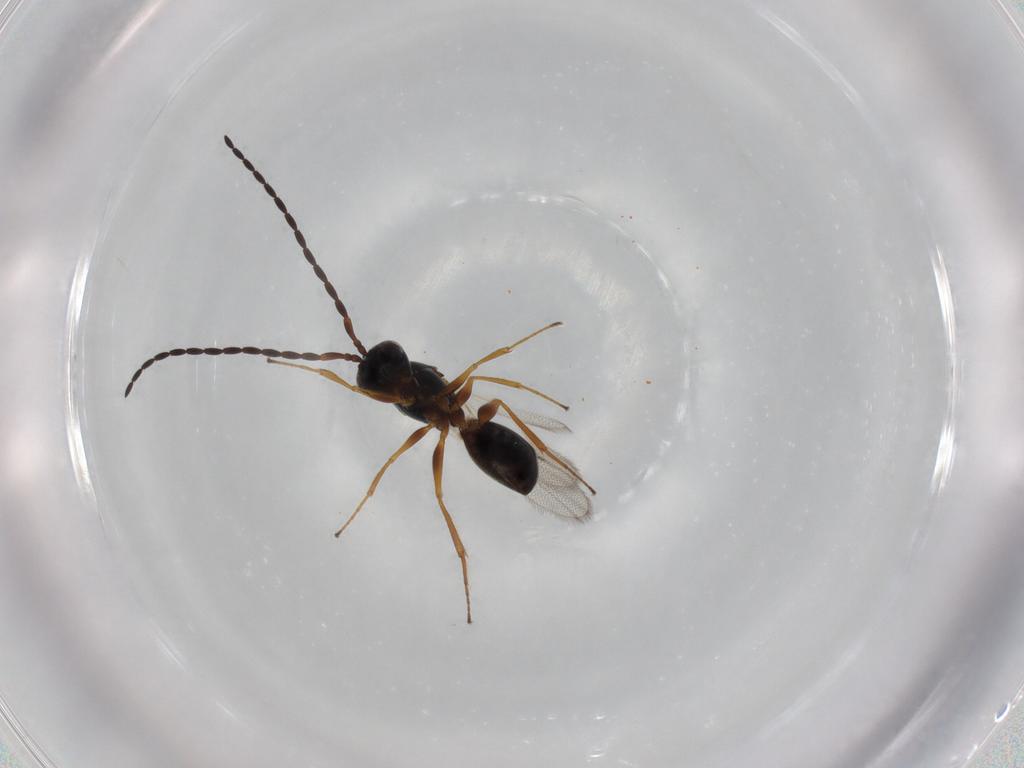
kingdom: Animalia
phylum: Arthropoda
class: Insecta
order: Hymenoptera
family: Figitidae
